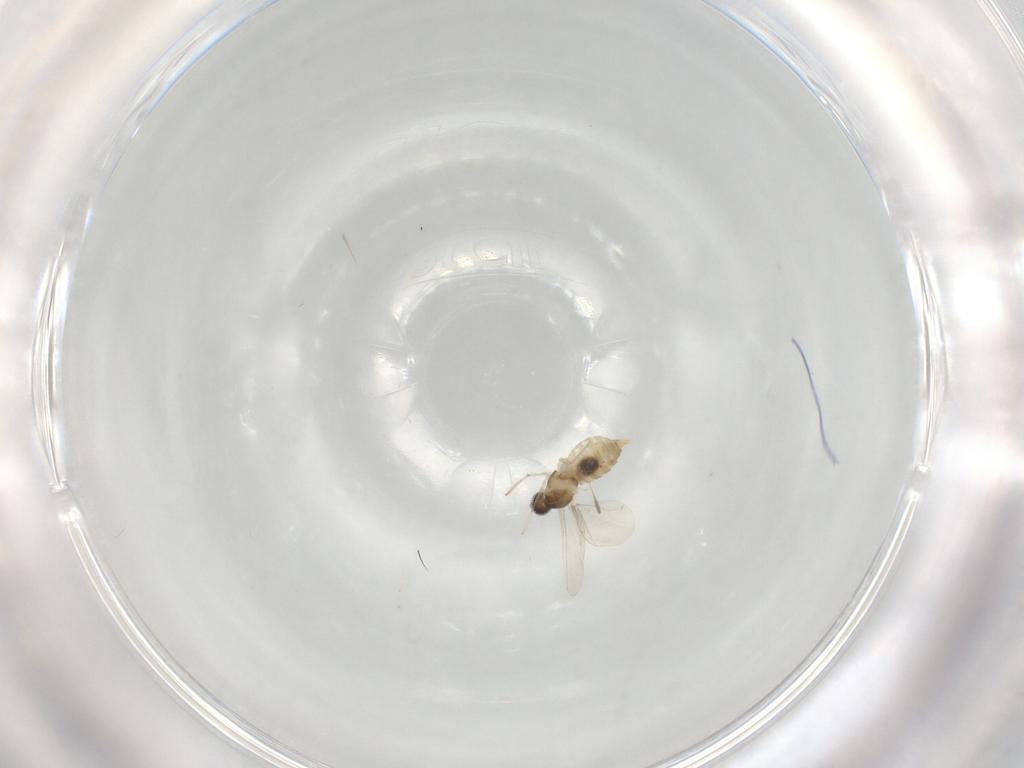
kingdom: Animalia
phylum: Arthropoda
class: Insecta
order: Diptera
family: Cecidomyiidae
